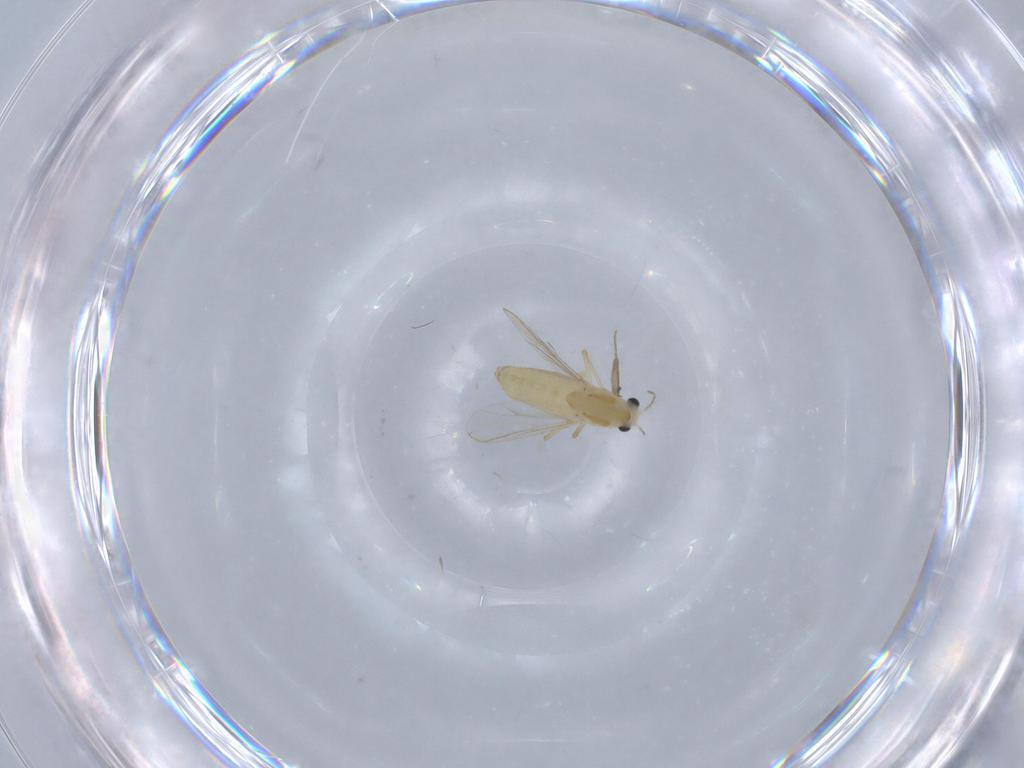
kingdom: Animalia
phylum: Arthropoda
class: Insecta
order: Diptera
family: Chironomidae
